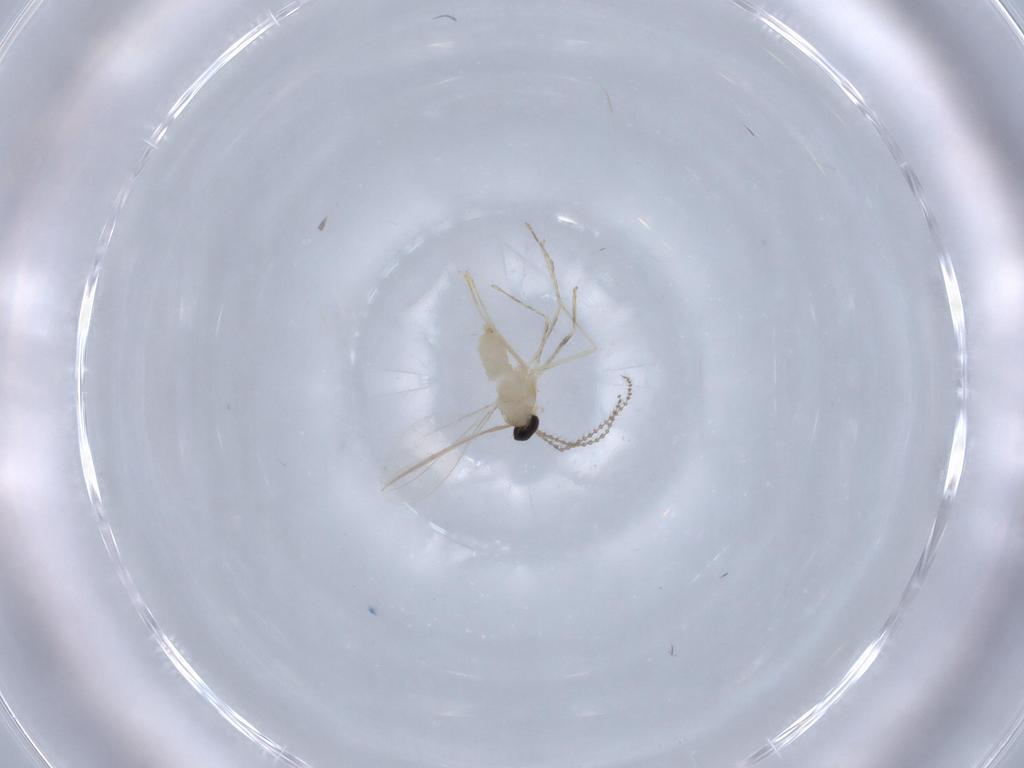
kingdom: Animalia
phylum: Arthropoda
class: Insecta
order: Diptera
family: Cecidomyiidae
